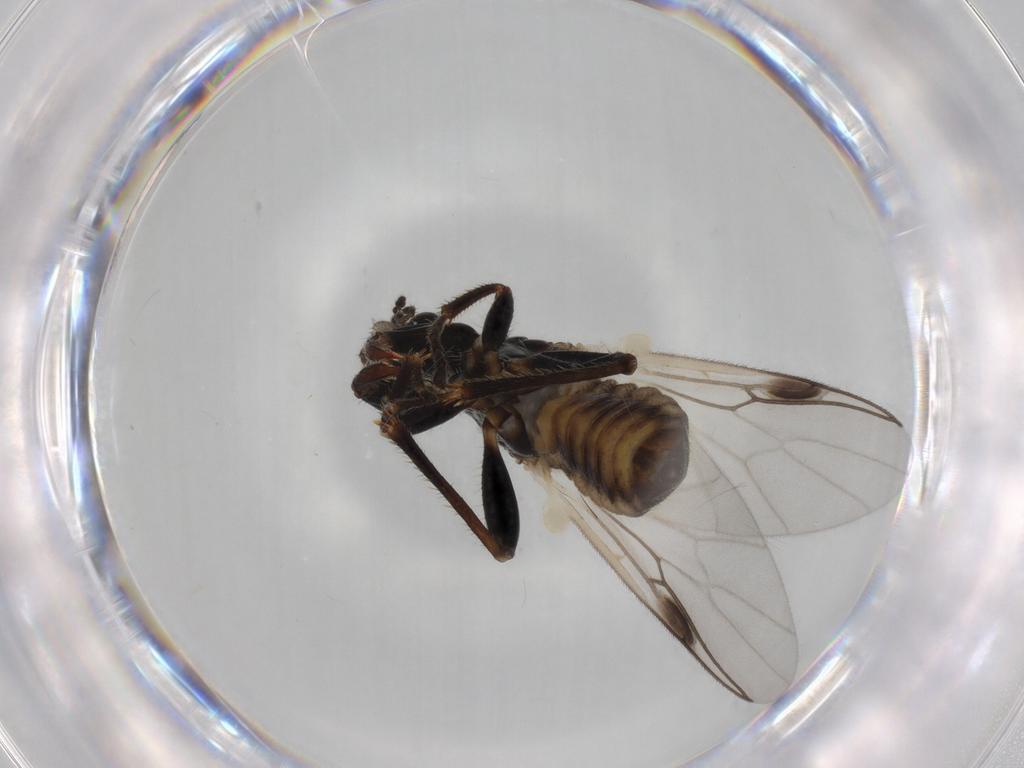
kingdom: Animalia
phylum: Arthropoda
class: Insecta
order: Diptera
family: Bibionidae
